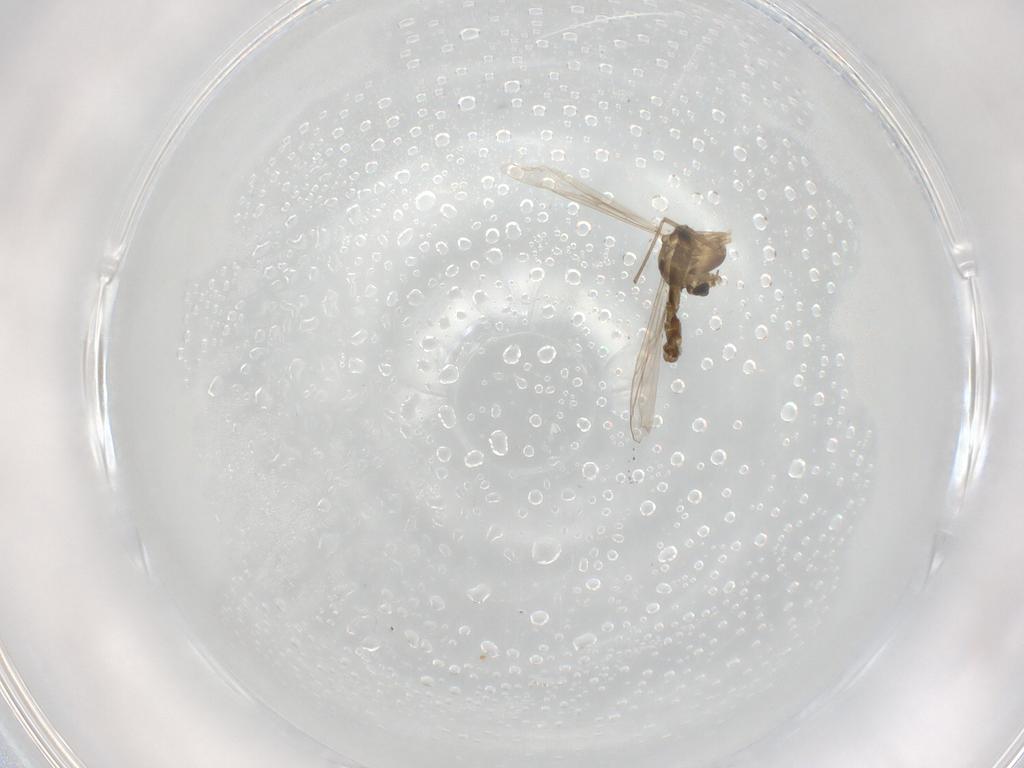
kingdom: Animalia
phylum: Arthropoda
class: Insecta
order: Diptera
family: Chironomidae
